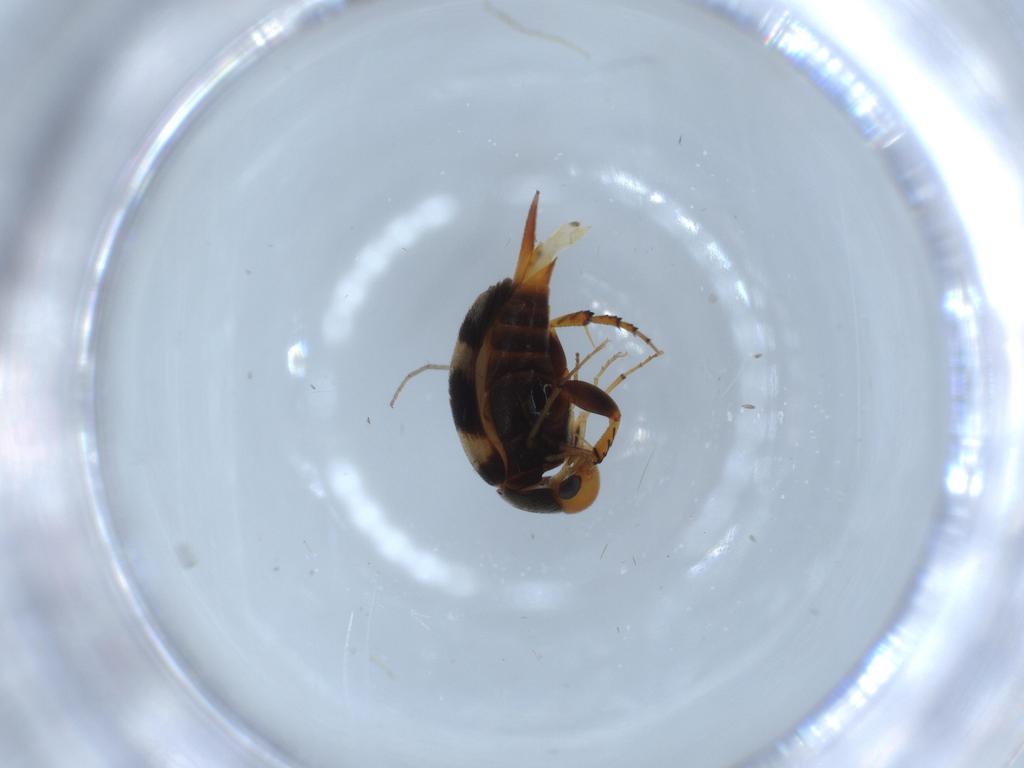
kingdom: Animalia
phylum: Arthropoda
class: Insecta
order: Coleoptera
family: Mordellidae
